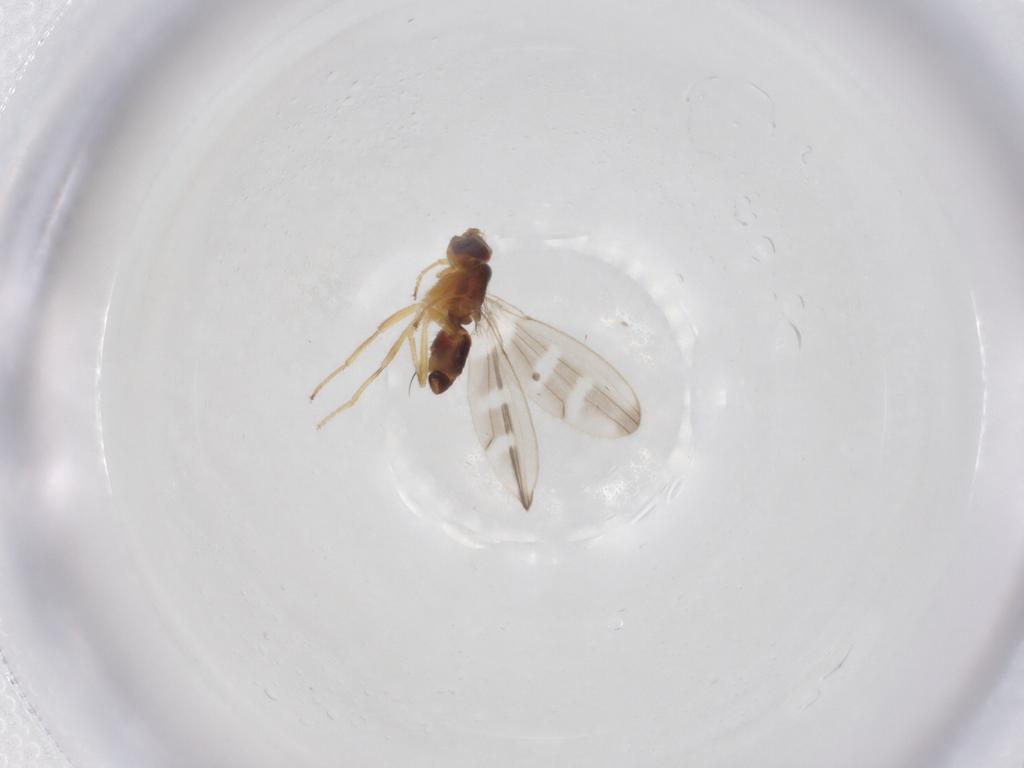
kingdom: Animalia
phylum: Arthropoda
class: Insecta
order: Diptera
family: Periscelididae
